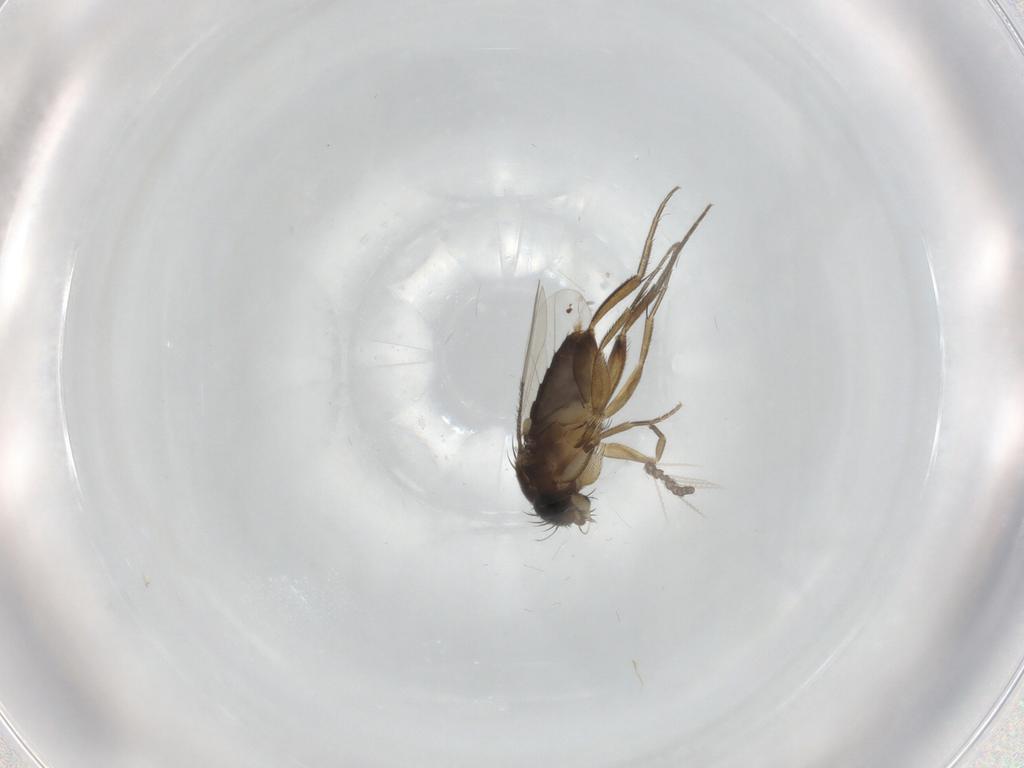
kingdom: Animalia
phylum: Arthropoda
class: Insecta
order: Diptera
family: Phoridae
